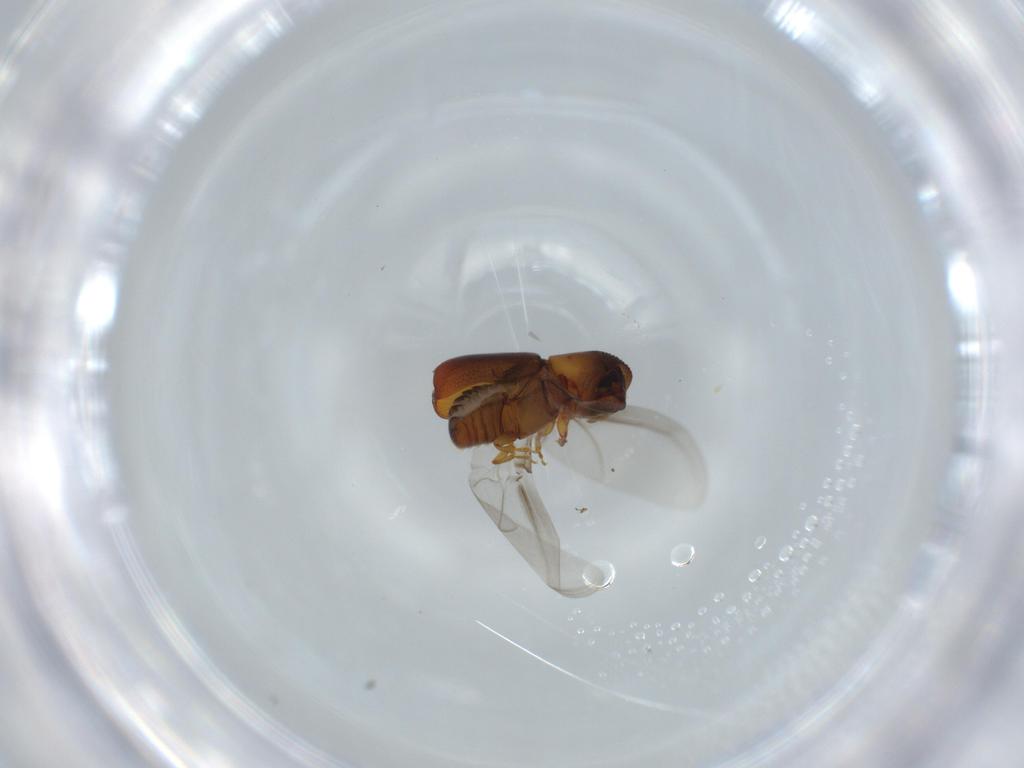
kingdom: Animalia
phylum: Arthropoda
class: Insecta
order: Coleoptera
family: Curculionidae
